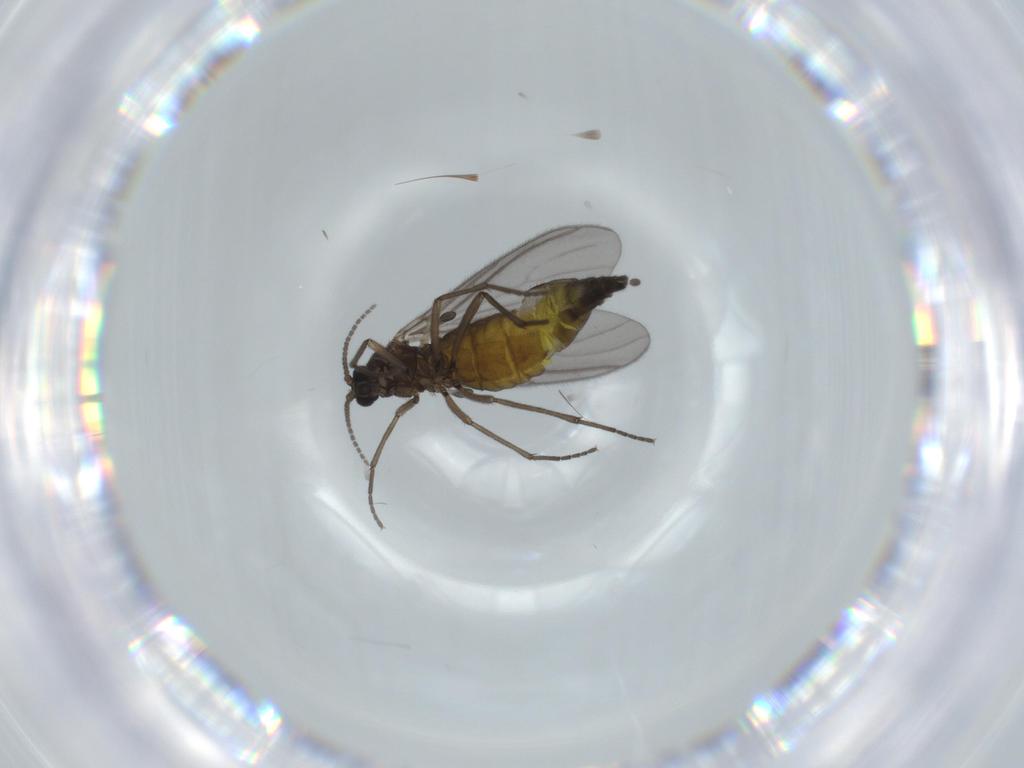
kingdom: Animalia
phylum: Arthropoda
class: Insecta
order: Diptera
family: Sciaridae
